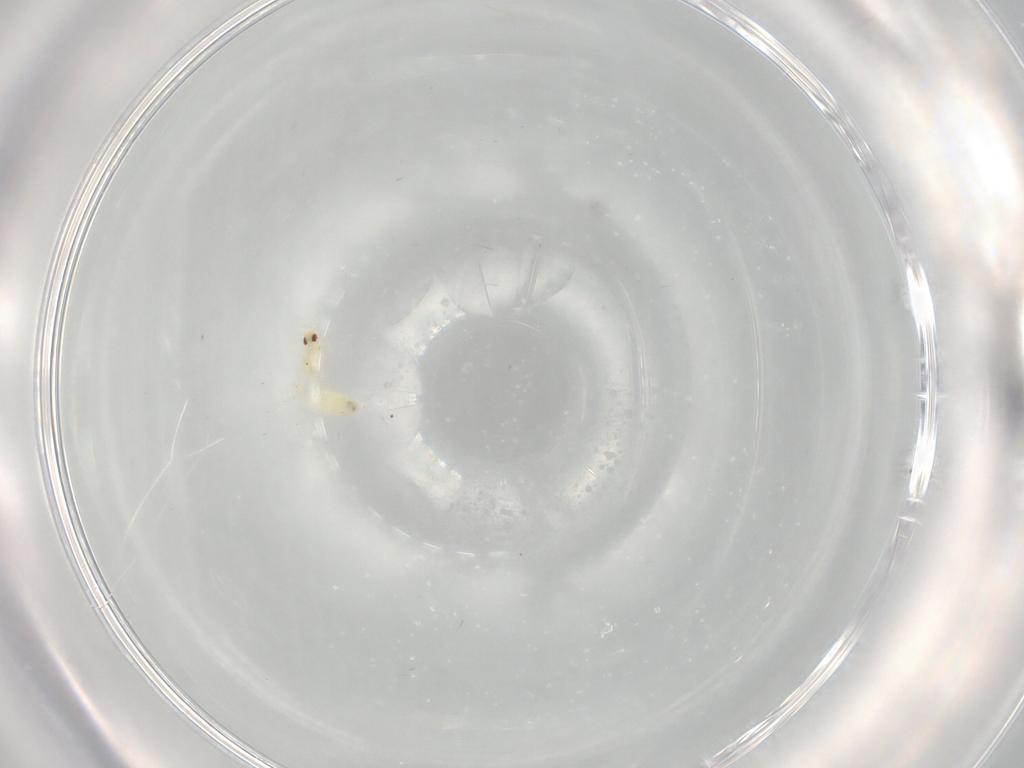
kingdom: Animalia
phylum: Arthropoda
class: Insecta
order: Hemiptera
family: Aleyrodidae
